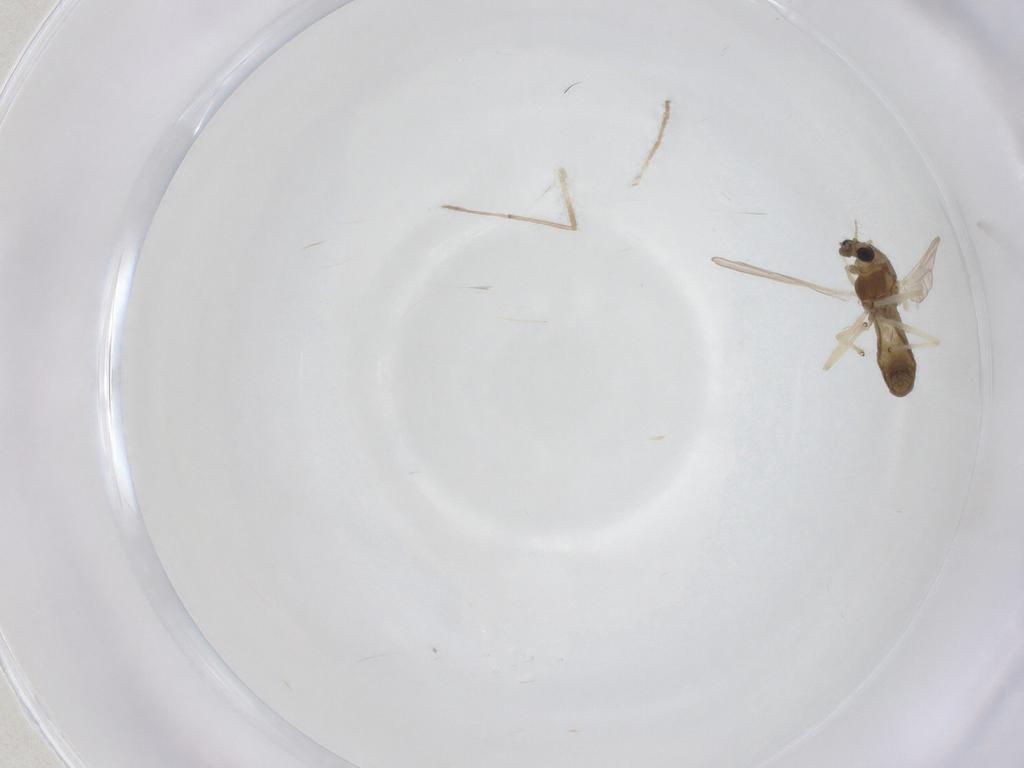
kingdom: Animalia
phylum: Arthropoda
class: Insecta
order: Diptera
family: Chironomidae
